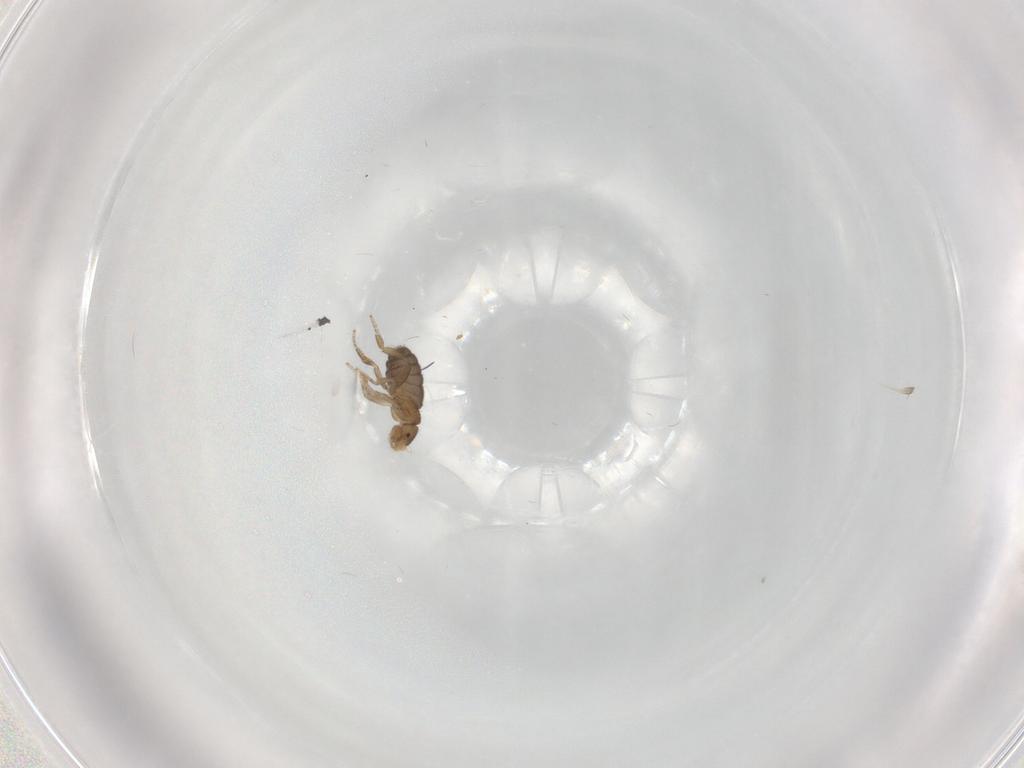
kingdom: Animalia
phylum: Arthropoda
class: Insecta
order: Diptera
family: Phoridae
